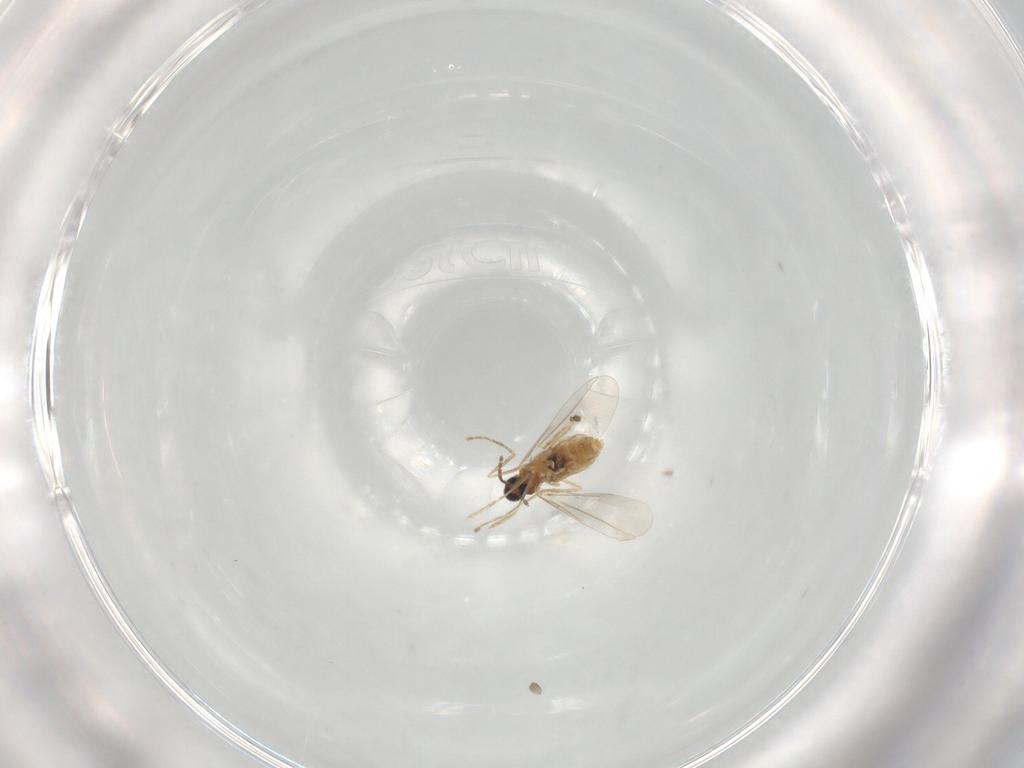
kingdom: Animalia
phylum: Arthropoda
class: Insecta
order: Diptera
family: Cecidomyiidae
